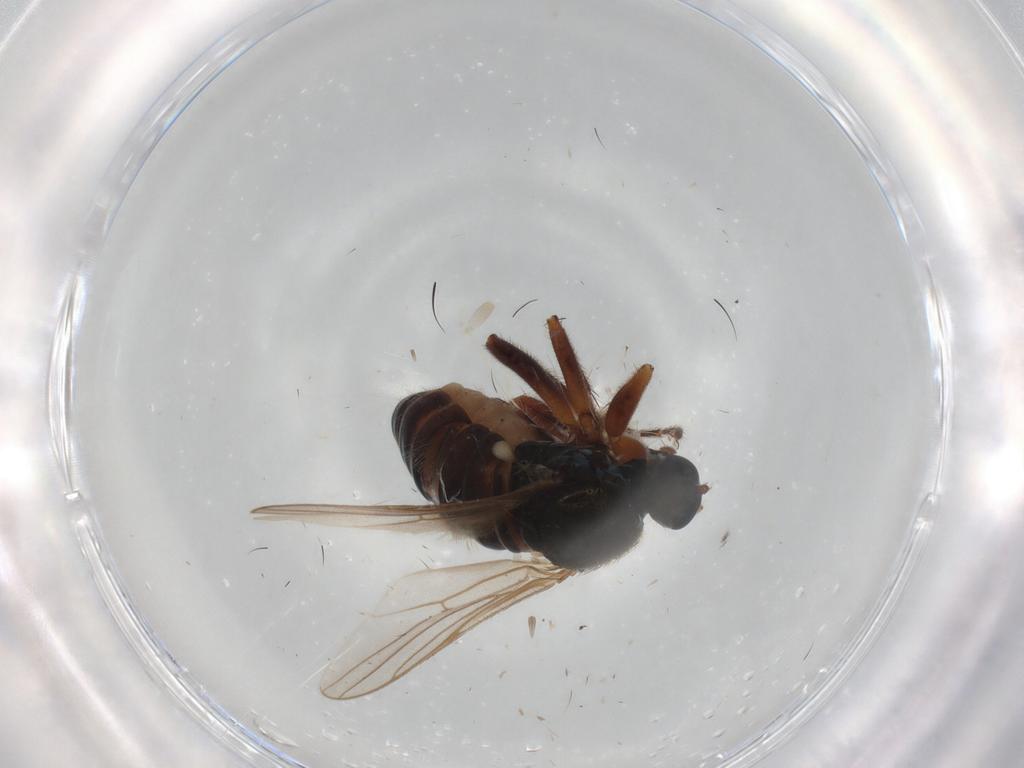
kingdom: Animalia
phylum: Arthropoda
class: Insecta
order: Diptera
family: Hybotidae
